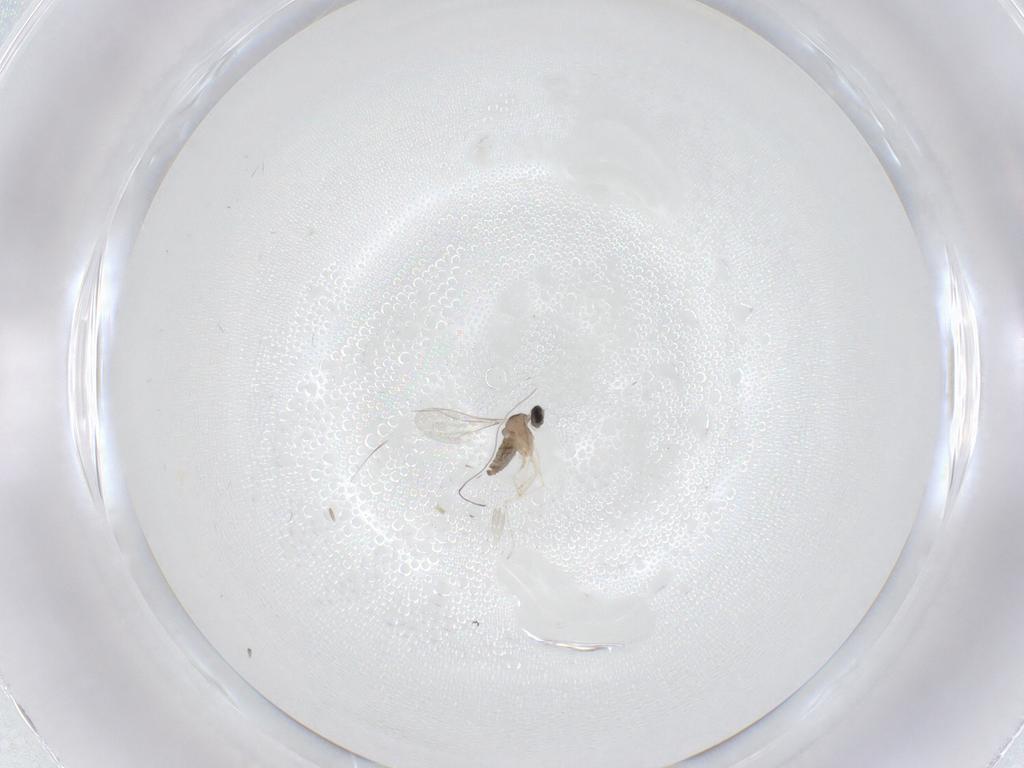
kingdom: Animalia
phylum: Arthropoda
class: Insecta
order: Diptera
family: Cecidomyiidae
